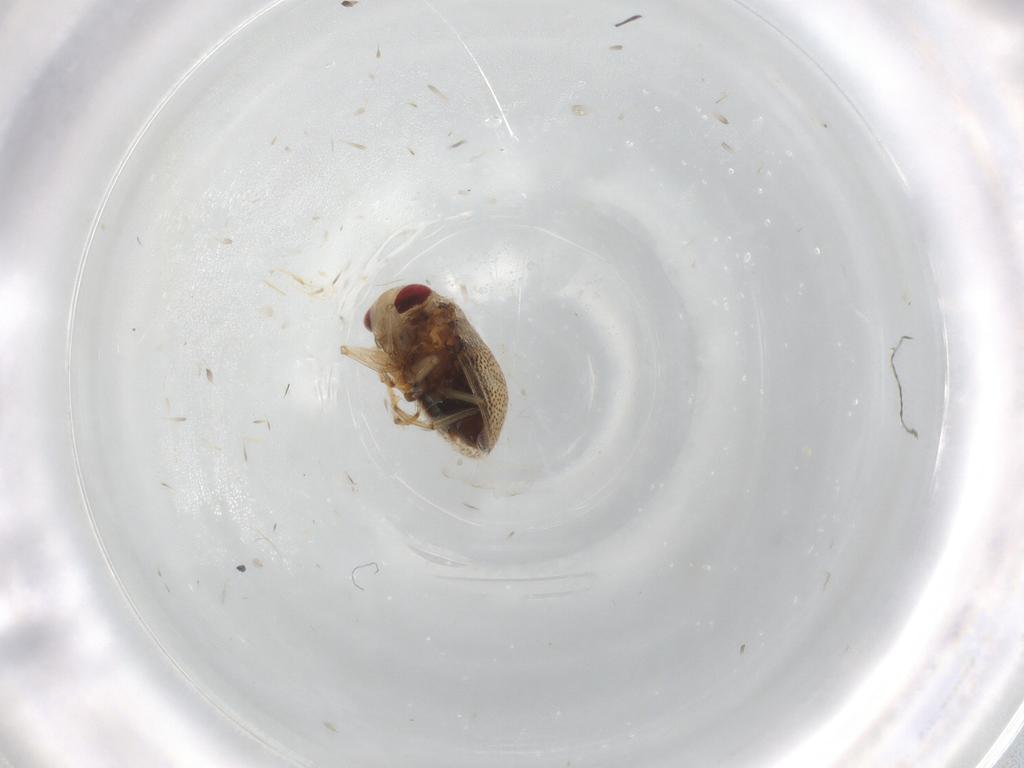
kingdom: Animalia
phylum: Arthropoda
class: Insecta
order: Hemiptera
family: Pleidae
